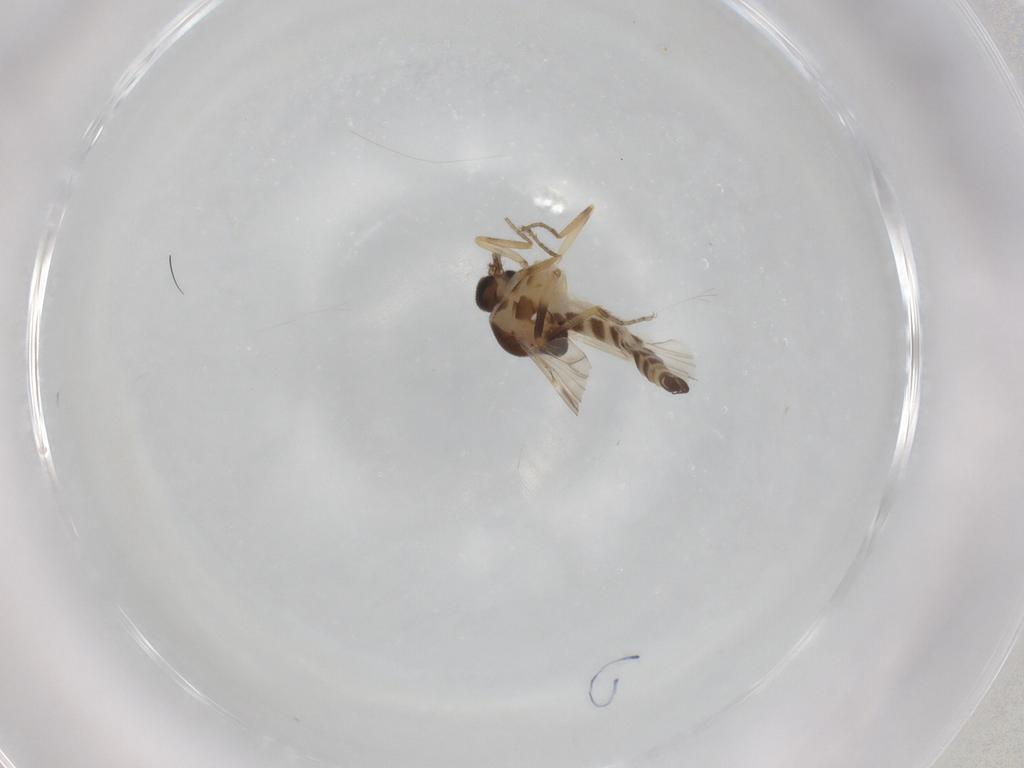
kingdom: Animalia
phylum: Arthropoda
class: Insecta
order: Diptera
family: Ceratopogonidae
